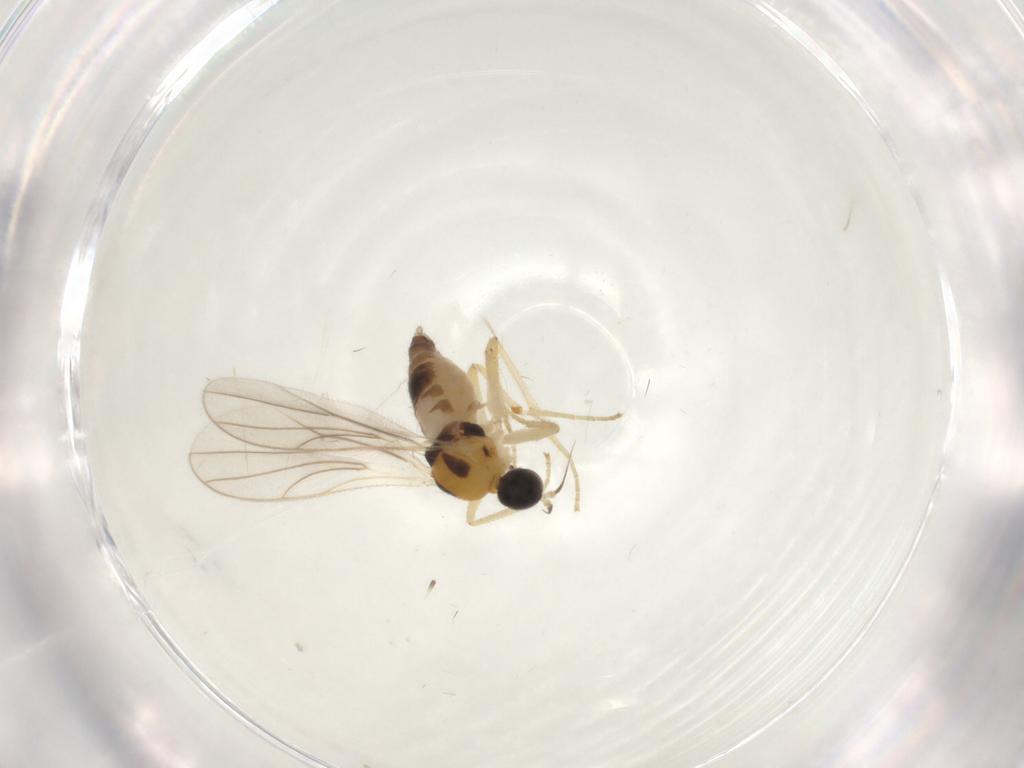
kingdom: Animalia
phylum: Arthropoda
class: Insecta
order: Diptera
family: Hybotidae
